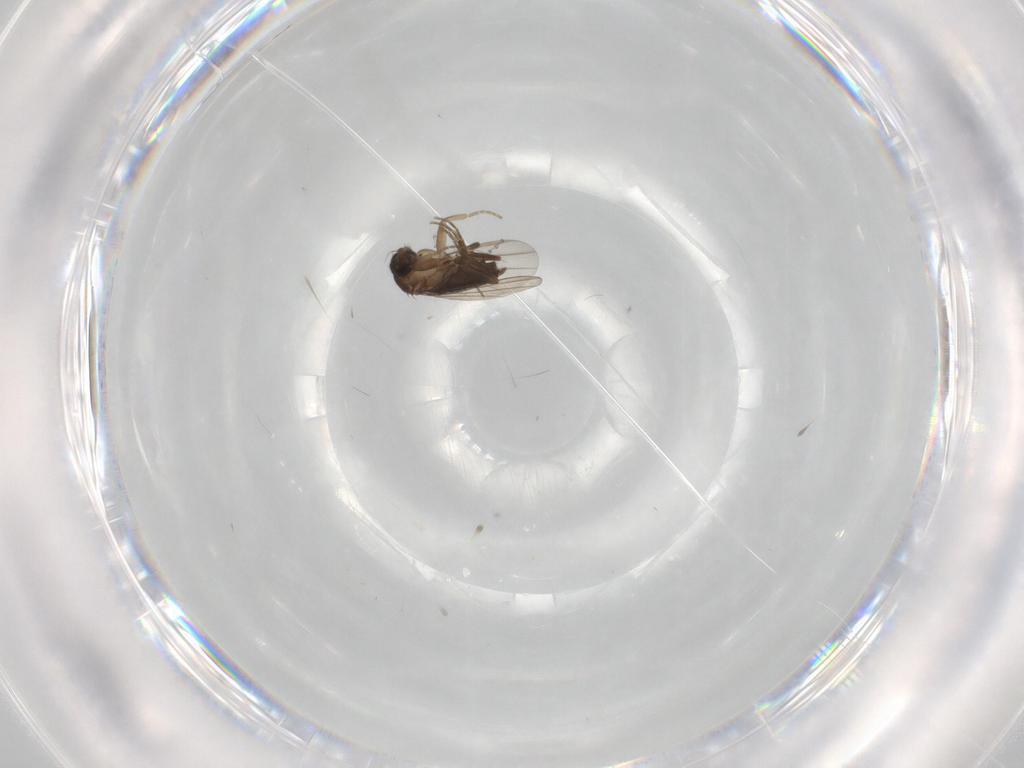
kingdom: Animalia
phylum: Arthropoda
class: Insecta
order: Diptera
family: Phoridae
